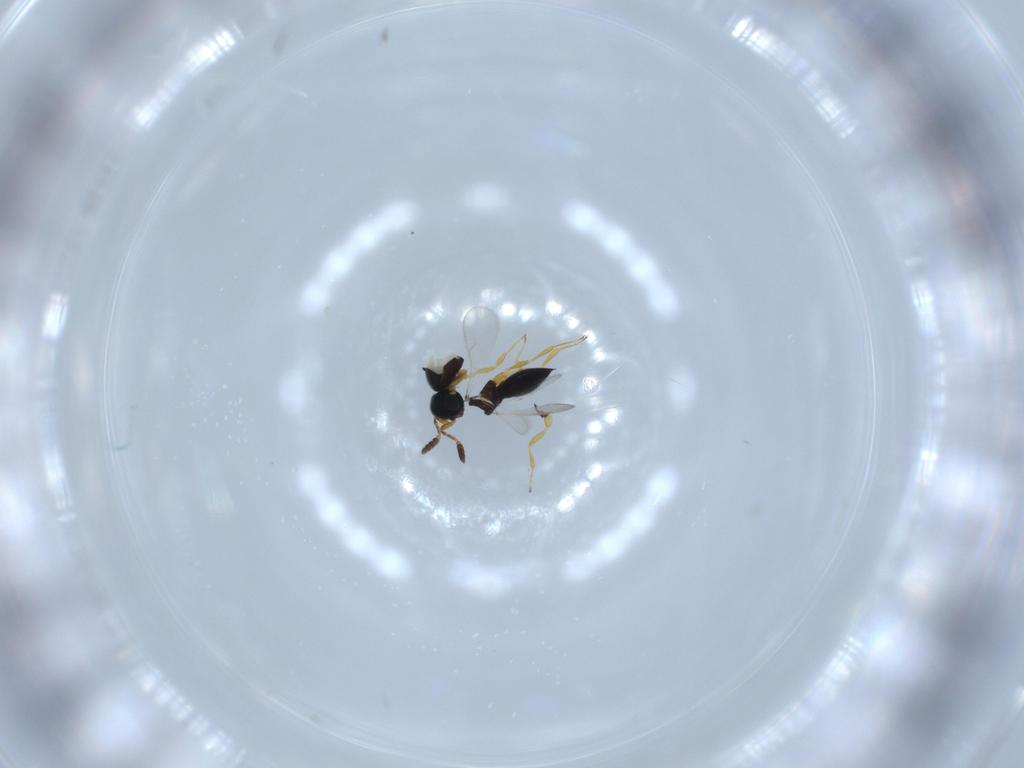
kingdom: Animalia
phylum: Arthropoda
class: Insecta
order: Hymenoptera
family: Scelionidae
